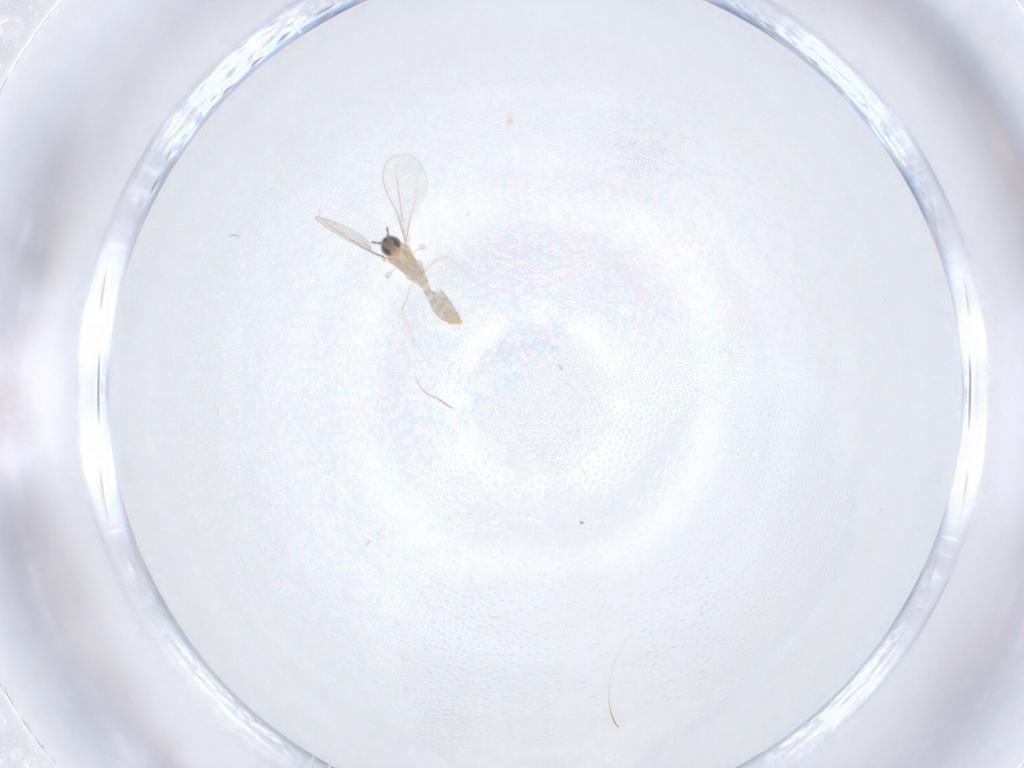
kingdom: Animalia
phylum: Arthropoda
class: Insecta
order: Diptera
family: Cecidomyiidae
